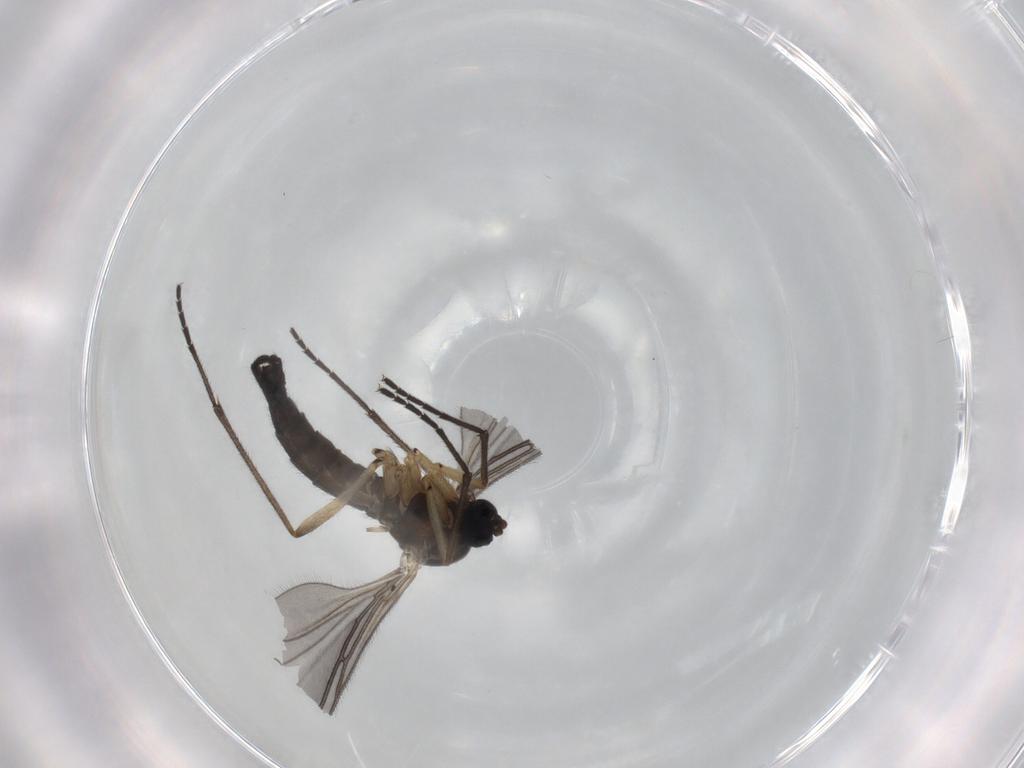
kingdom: Animalia
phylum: Arthropoda
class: Insecta
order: Diptera
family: Sciaridae
